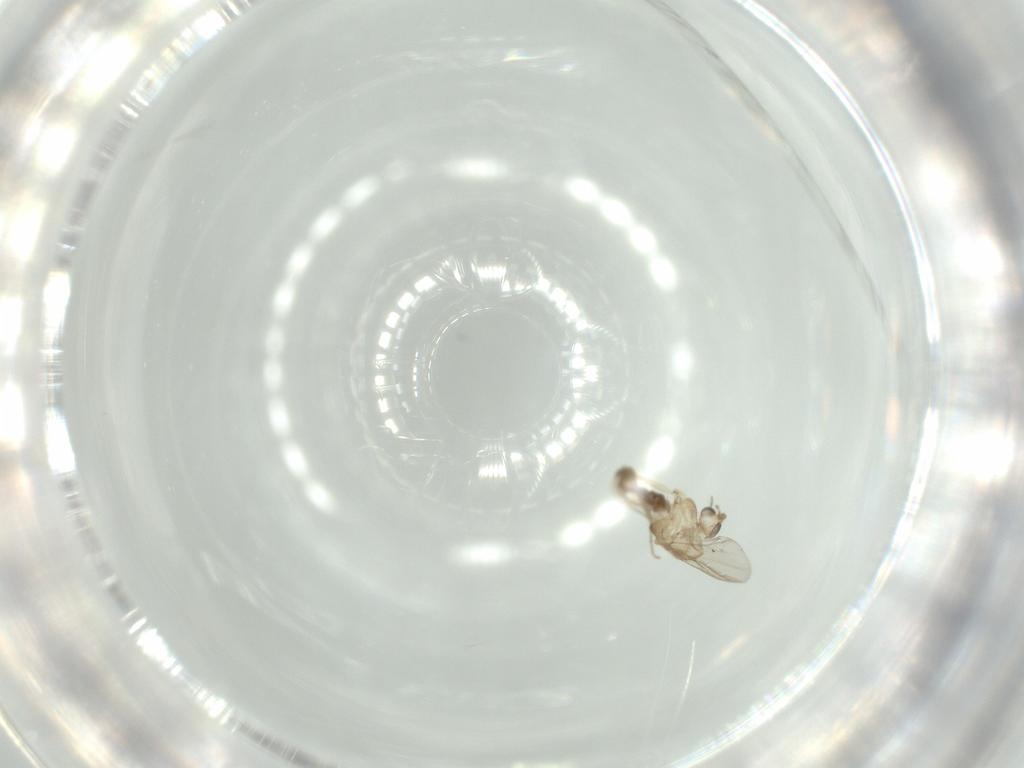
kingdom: Animalia
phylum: Arthropoda
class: Insecta
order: Diptera
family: Chironomidae
